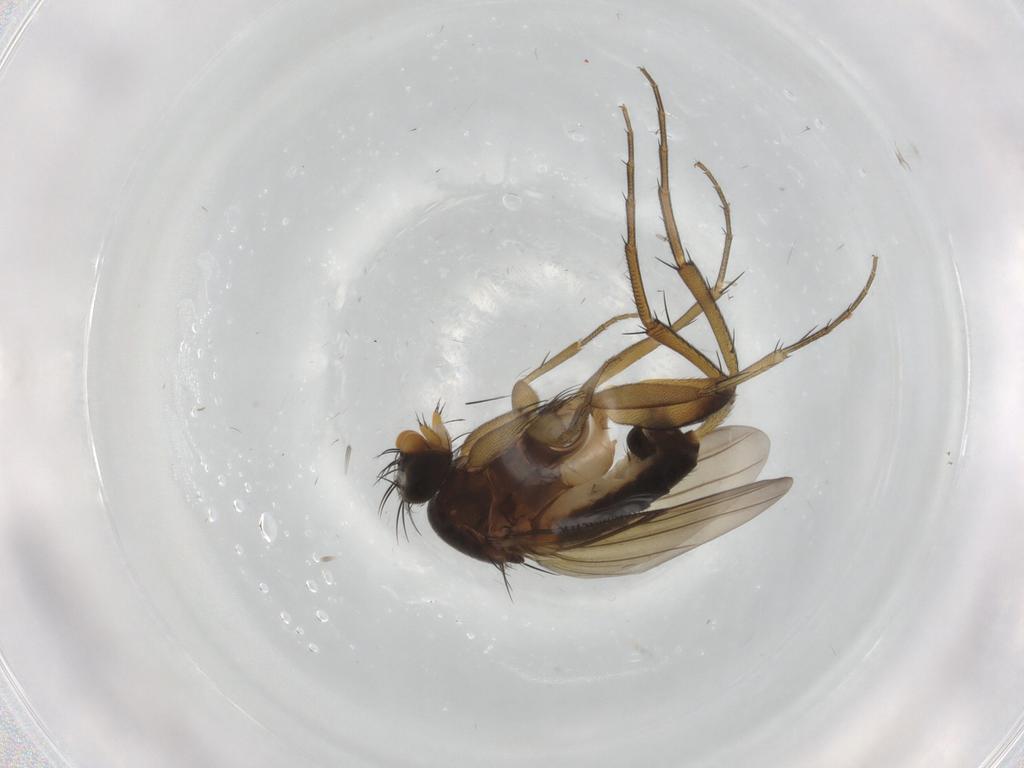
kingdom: Animalia
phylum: Arthropoda
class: Insecta
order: Diptera
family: Phoridae
